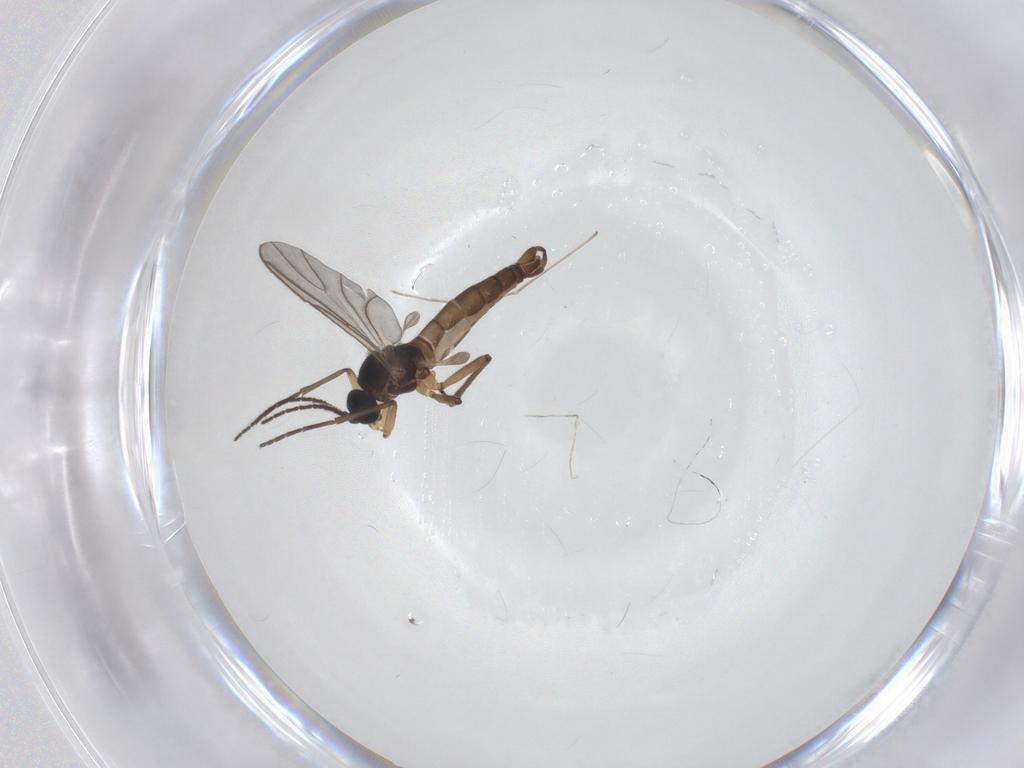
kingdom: Animalia
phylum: Arthropoda
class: Insecta
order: Diptera
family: Sciaridae
